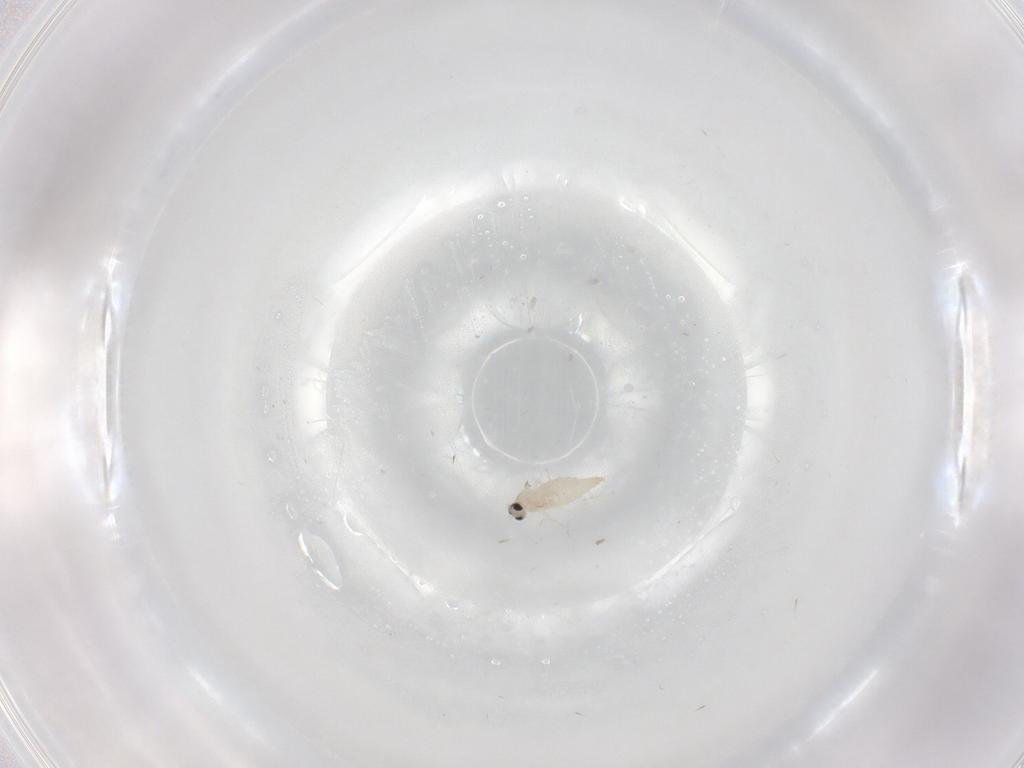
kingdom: Animalia
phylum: Arthropoda
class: Insecta
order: Diptera
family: Cecidomyiidae
